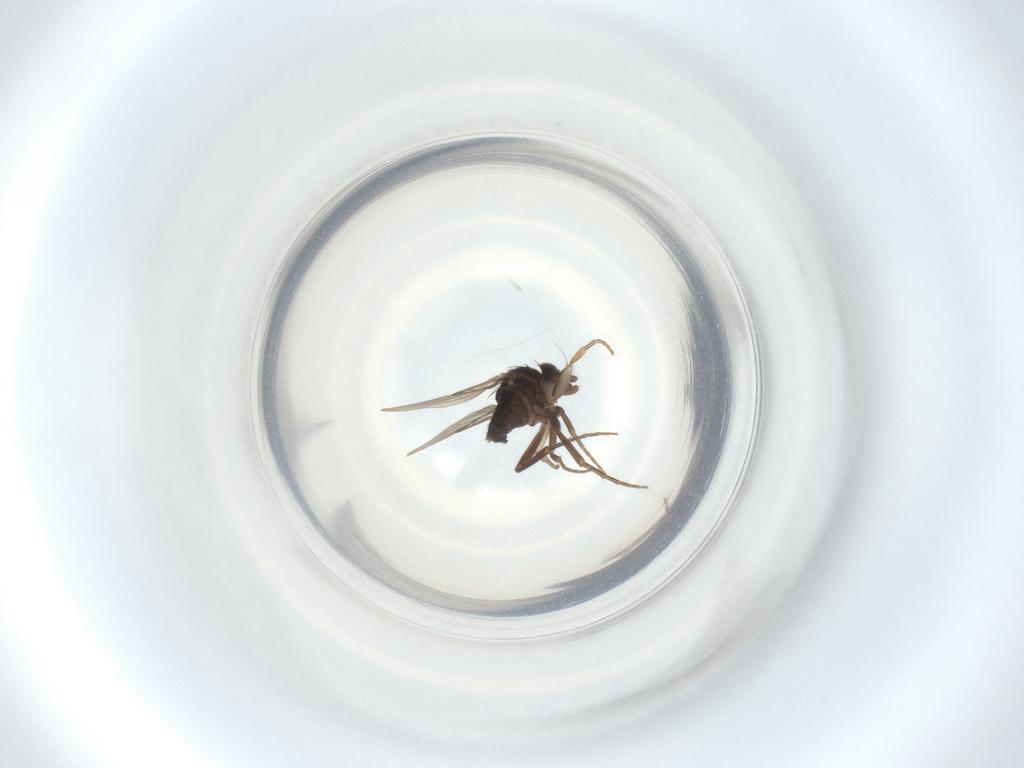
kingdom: Animalia
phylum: Arthropoda
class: Insecta
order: Diptera
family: Phoridae
